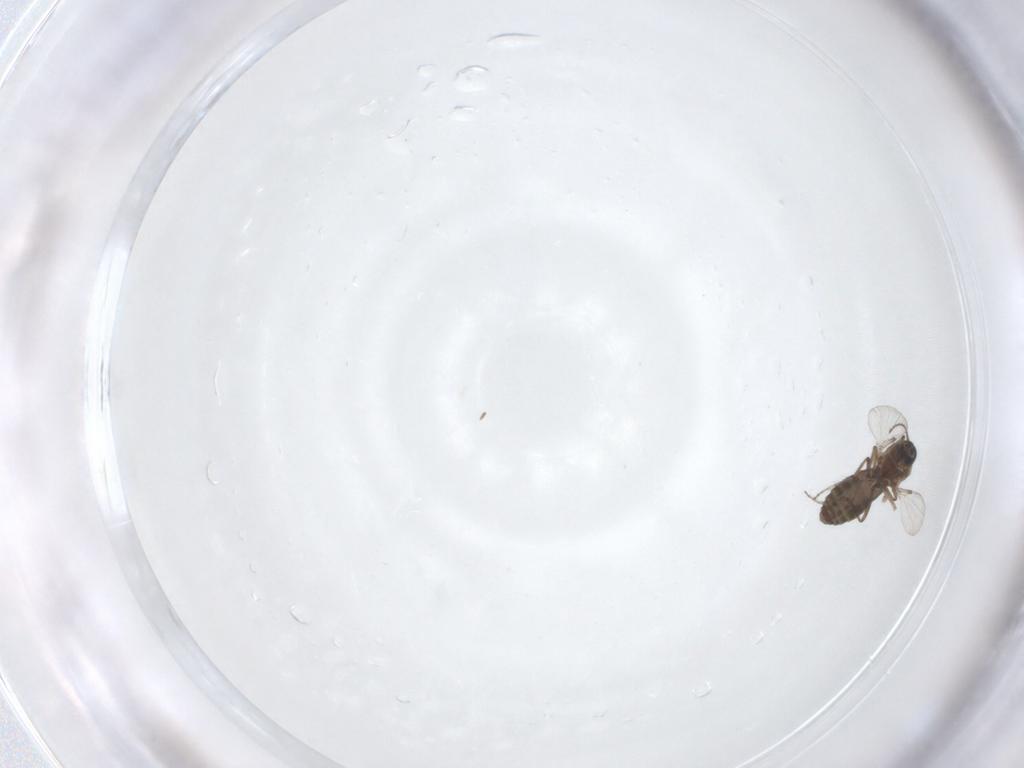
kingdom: Animalia
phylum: Arthropoda
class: Insecta
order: Diptera
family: Ceratopogonidae
